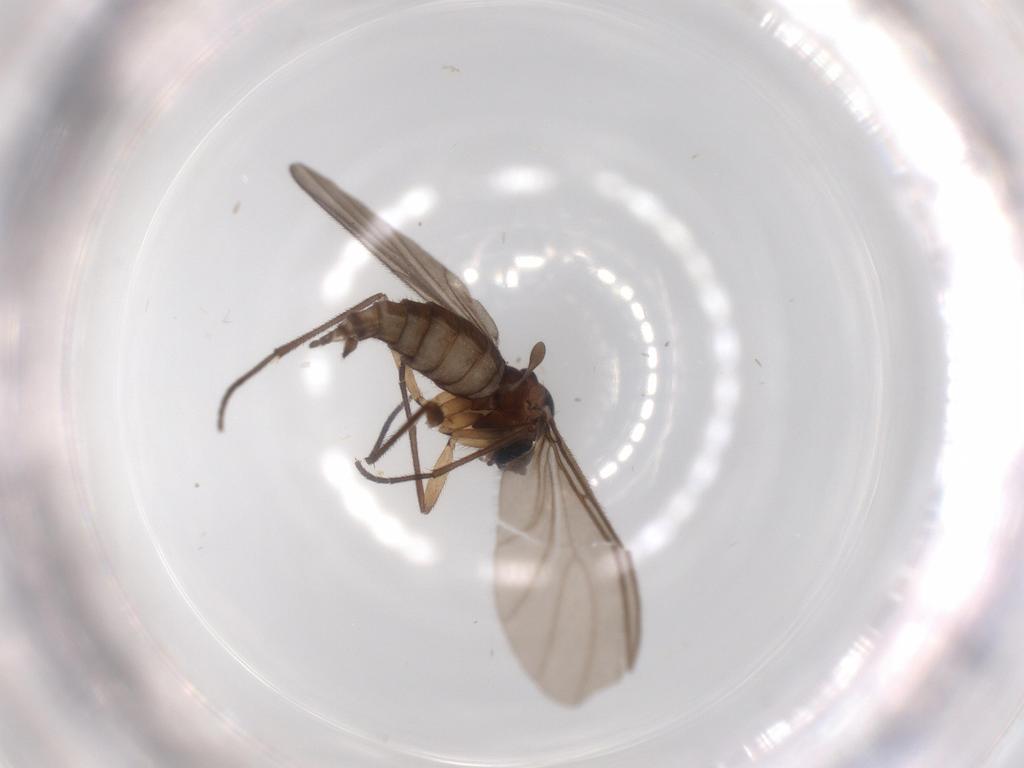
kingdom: Animalia
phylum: Arthropoda
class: Insecta
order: Diptera
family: Sciaridae
